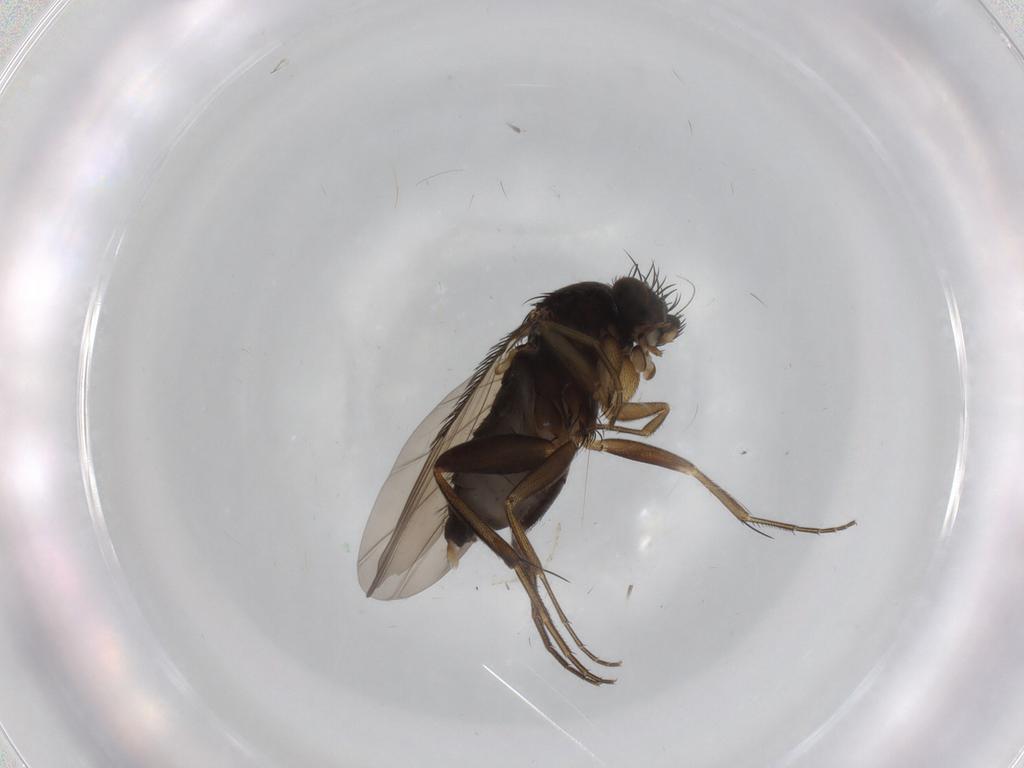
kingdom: Animalia
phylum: Arthropoda
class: Insecta
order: Diptera
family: Phoridae
